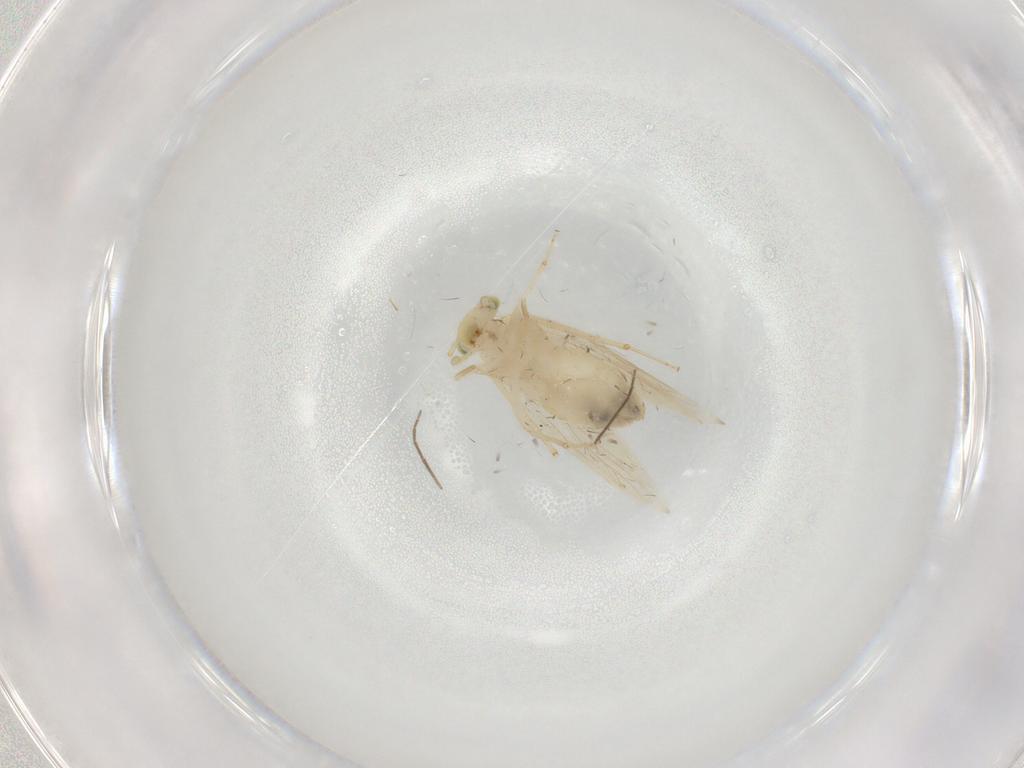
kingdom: Animalia
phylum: Arthropoda
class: Insecta
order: Psocodea
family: Lepidopsocidae
